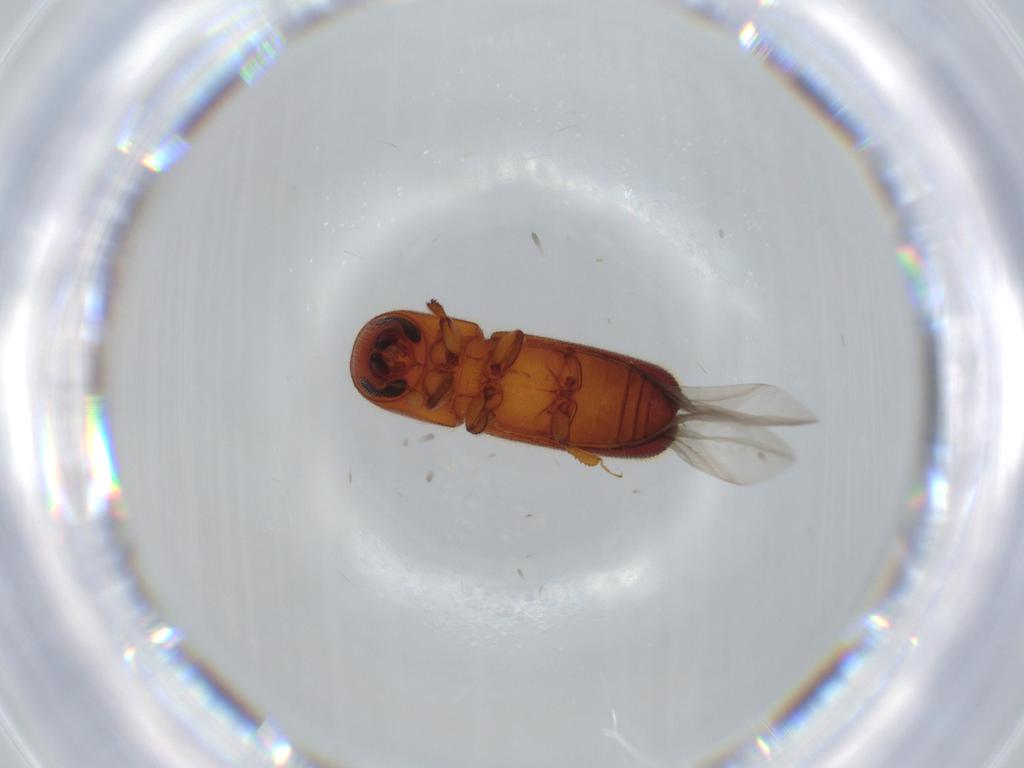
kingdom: Animalia
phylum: Arthropoda
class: Insecta
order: Coleoptera
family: Curculionidae
